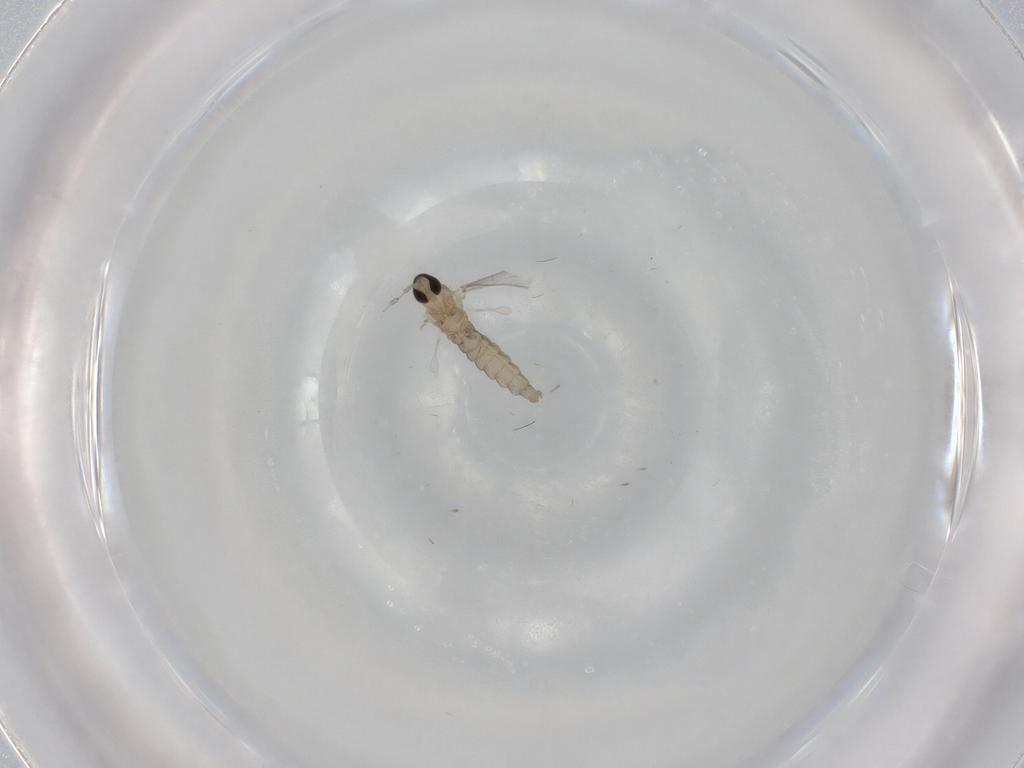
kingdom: Animalia
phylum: Arthropoda
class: Insecta
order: Diptera
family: Cecidomyiidae
